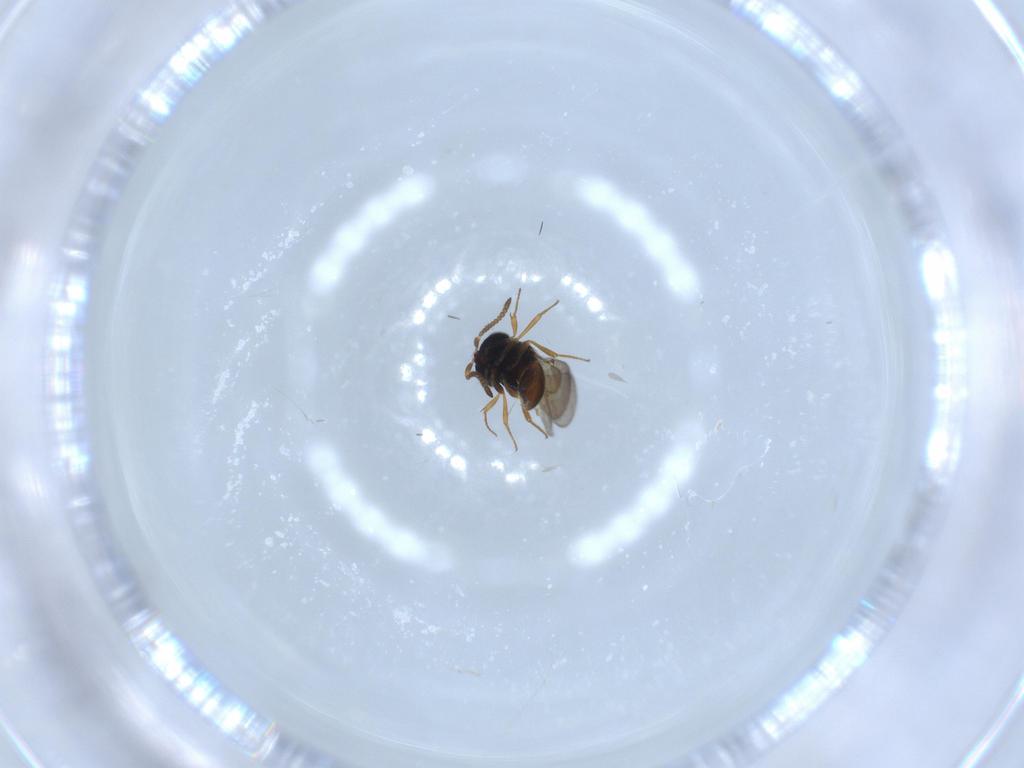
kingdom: Animalia
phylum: Arthropoda
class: Insecta
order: Hymenoptera
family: Scelionidae
